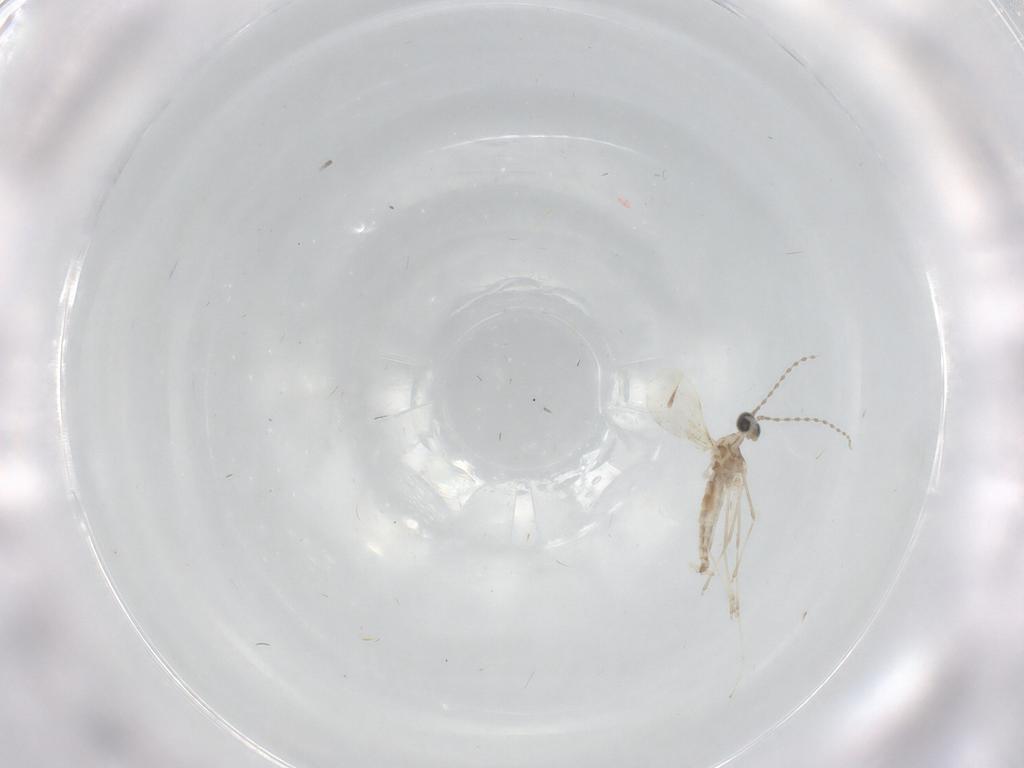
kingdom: Animalia
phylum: Arthropoda
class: Insecta
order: Diptera
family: Cecidomyiidae
